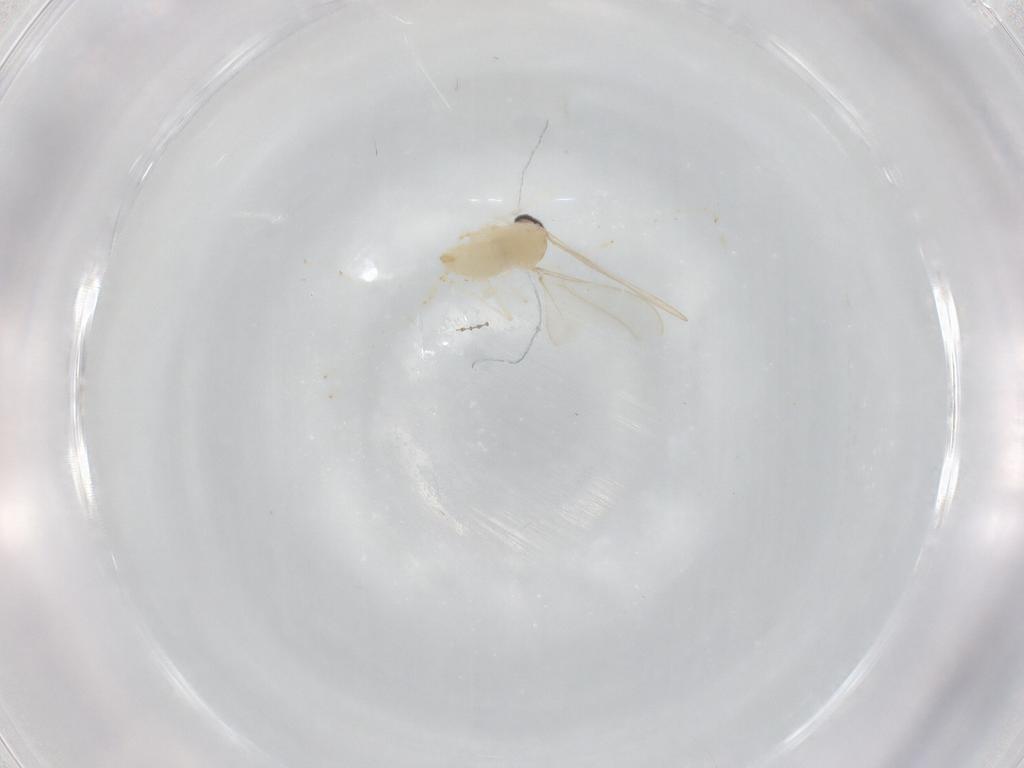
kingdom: Animalia
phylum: Arthropoda
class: Insecta
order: Diptera
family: Cecidomyiidae
